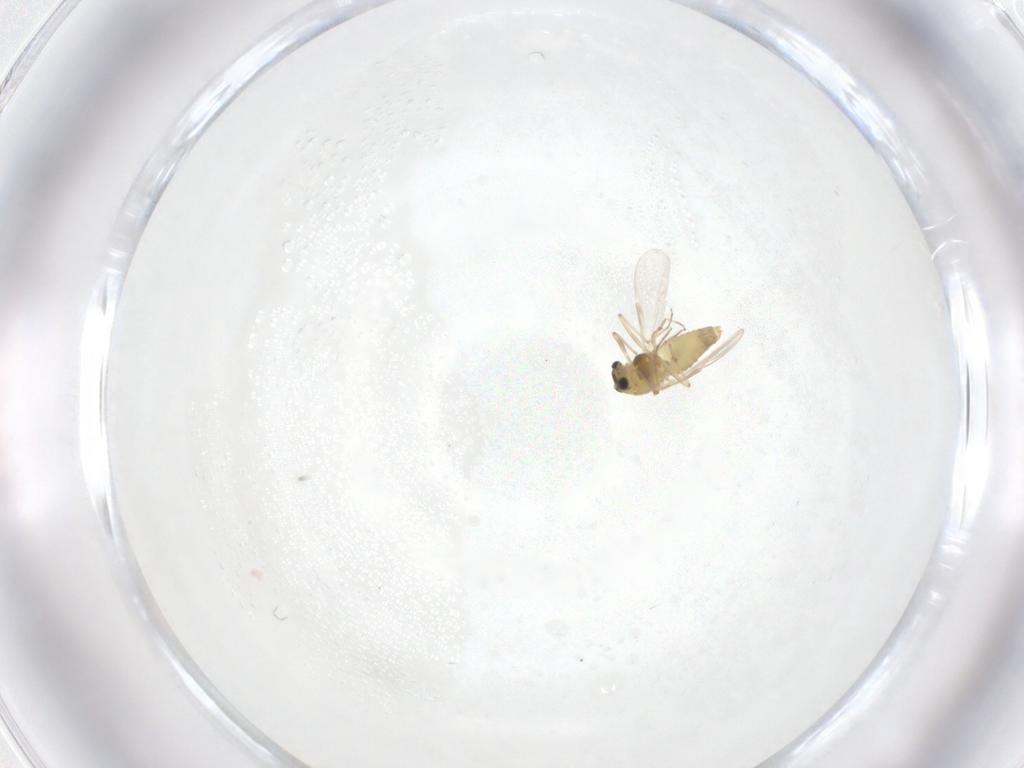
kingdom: Animalia
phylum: Arthropoda
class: Insecta
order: Diptera
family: Chironomidae
